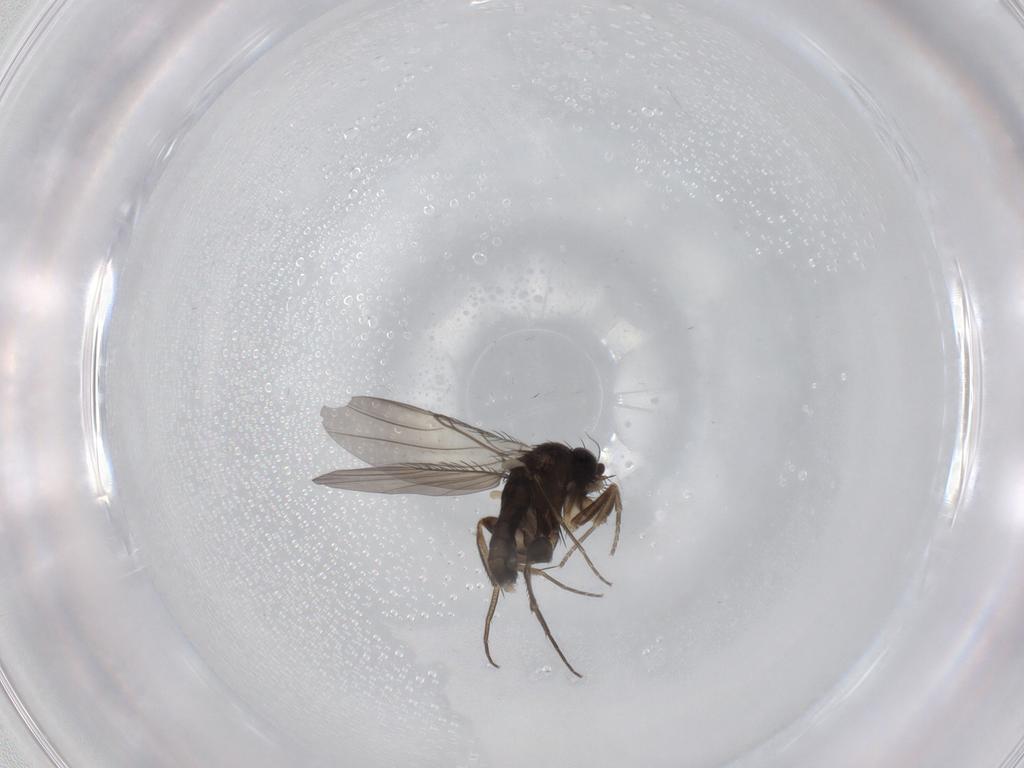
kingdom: Animalia
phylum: Arthropoda
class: Insecta
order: Diptera
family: Phoridae
